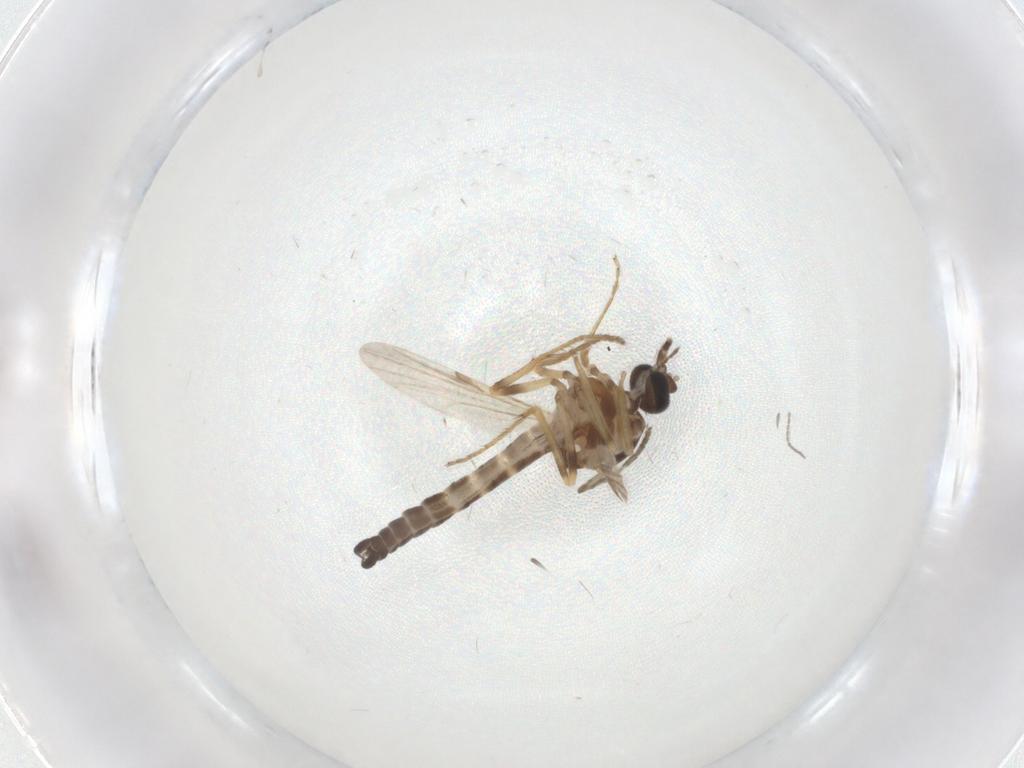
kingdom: Animalia
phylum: Arthropoda
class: Insecta
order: Diptera
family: Ceratopogonidae
